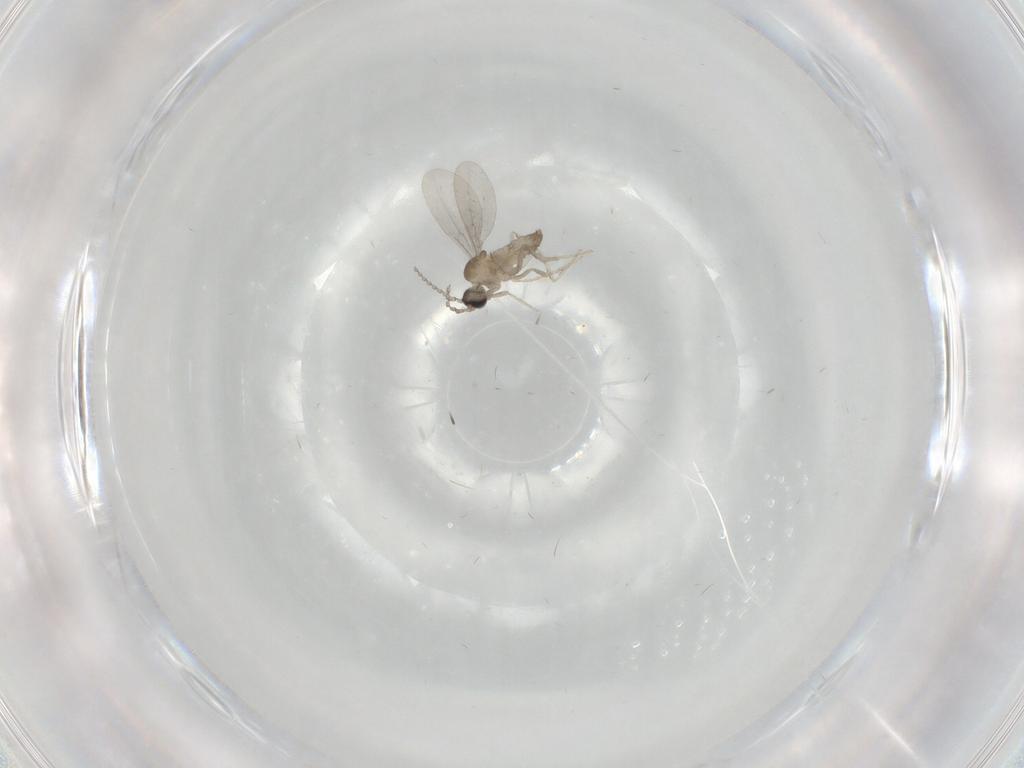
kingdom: Animalia
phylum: Arthropoda
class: Insecta
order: Diptera
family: Cecidomyiidae
